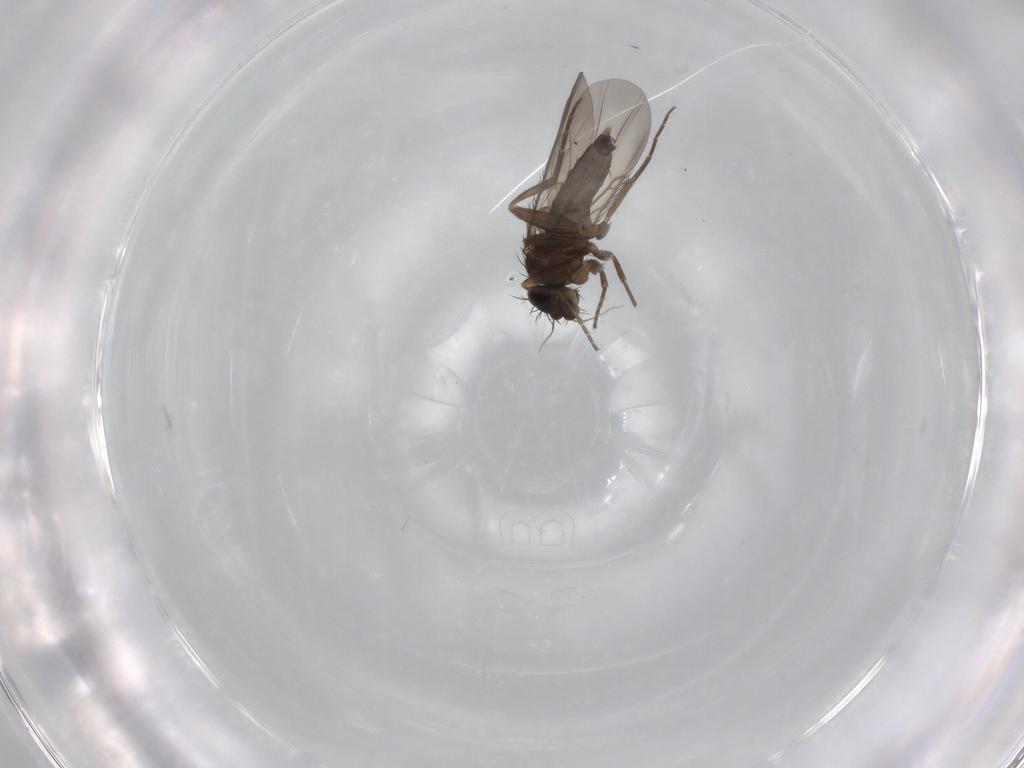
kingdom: Animalia
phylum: Arthropoda
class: Insecta
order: Diptera
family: Phoridae
